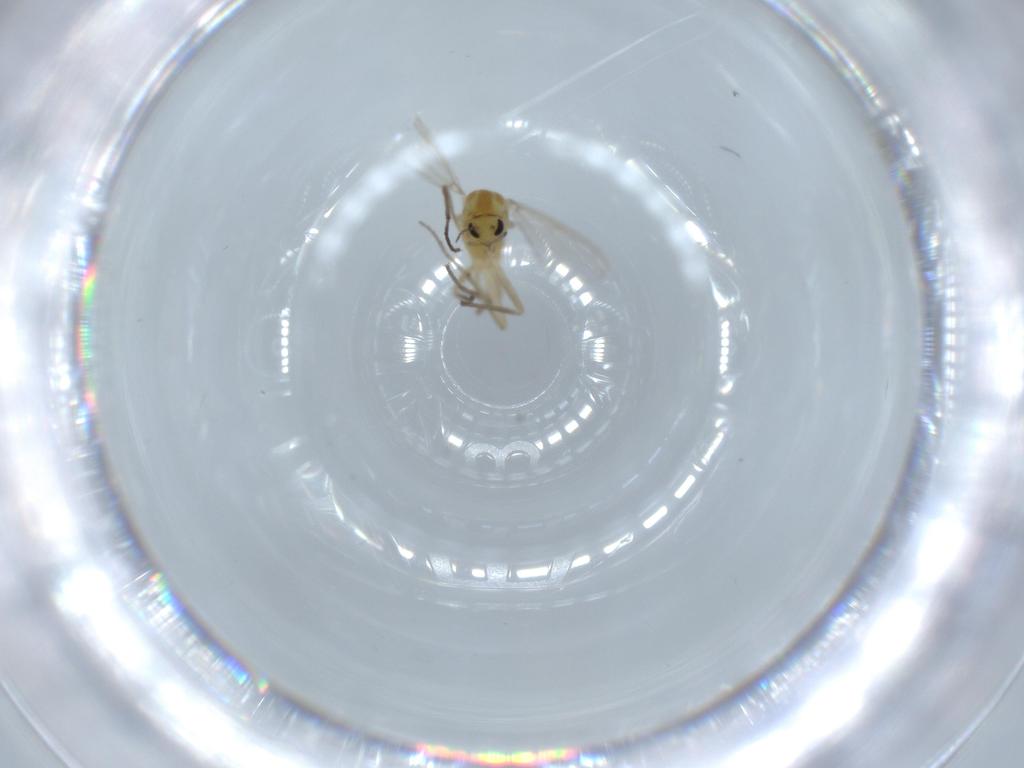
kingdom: Animalia
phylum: Arthropoda
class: Insecta
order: Diptera
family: Chironomidae
